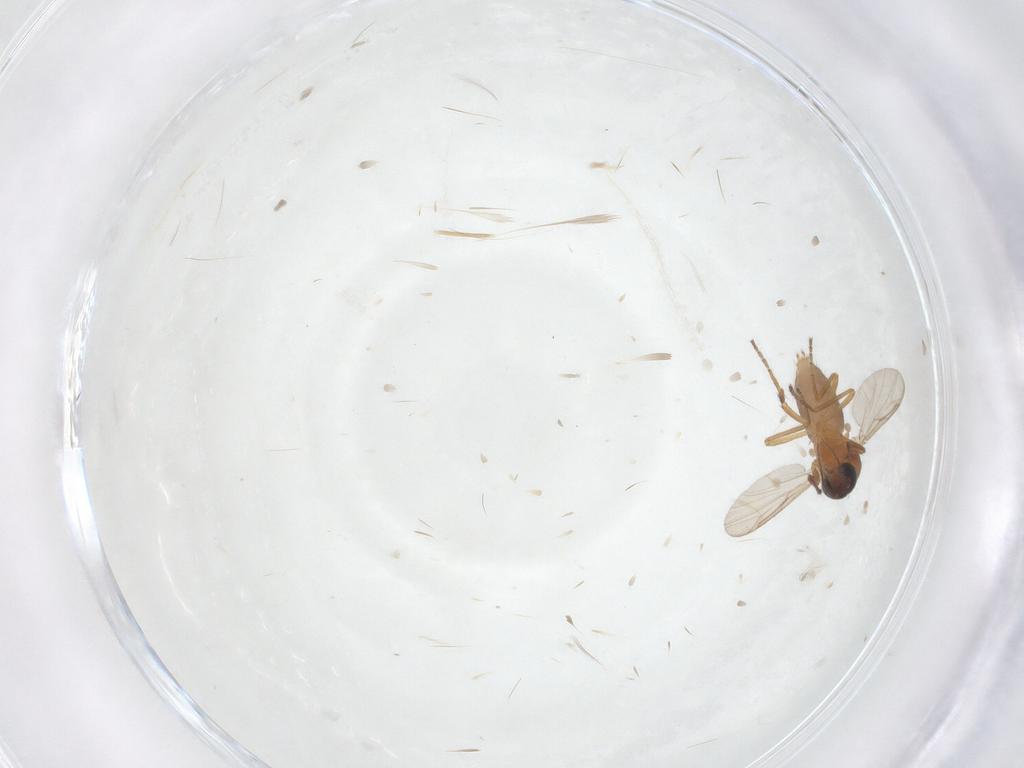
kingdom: Animalia
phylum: Arthropoda
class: Insecta
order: Diptera
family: Ceratopogonidae
